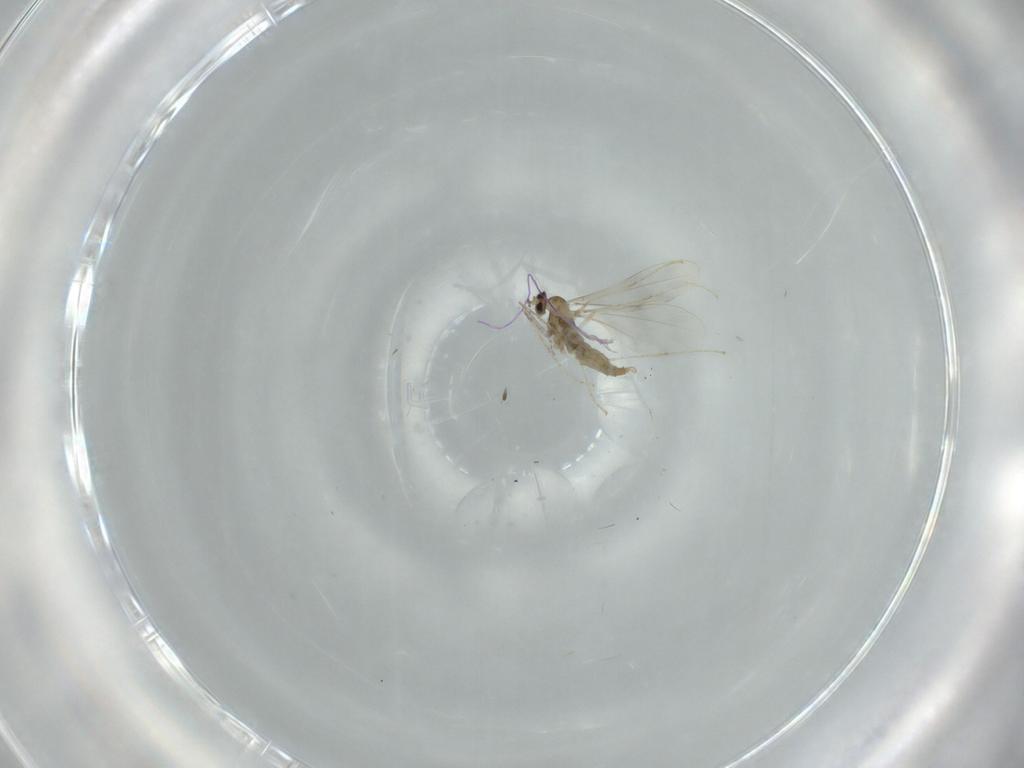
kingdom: Animalia
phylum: Arthropoda
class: Insecta
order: Diptera
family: Cecidomyiidae
